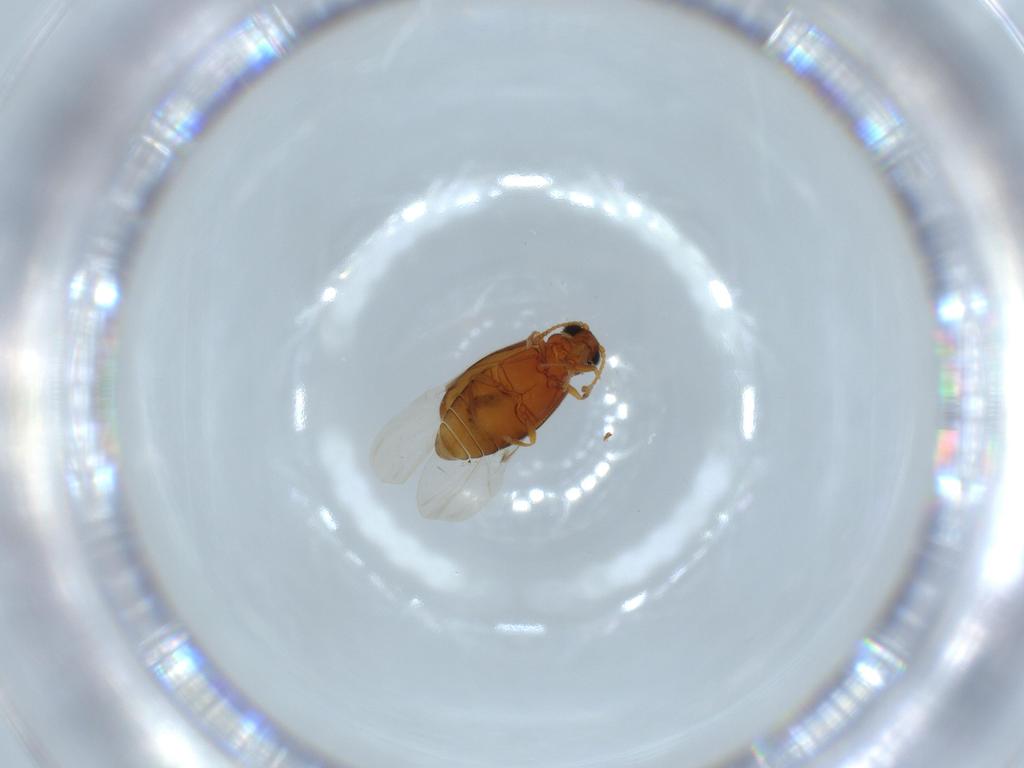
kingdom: Animalia
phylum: Arthropoda
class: Insecta
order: Coleoptera
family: Aderidae
